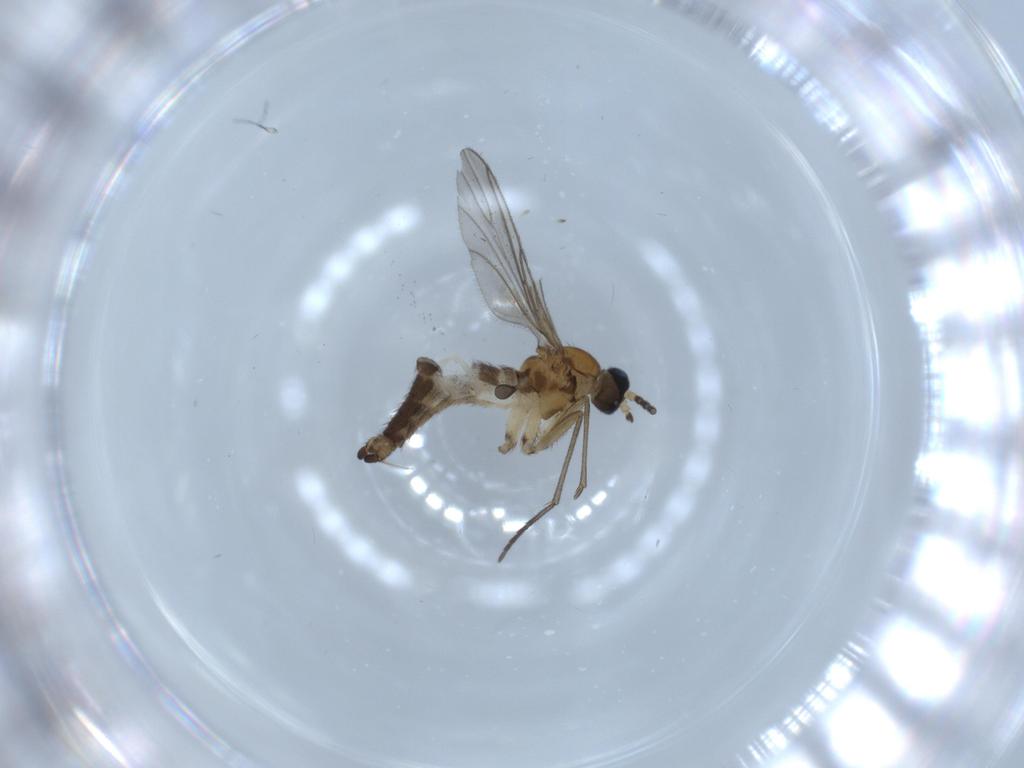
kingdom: Animalia
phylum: Arthropoda
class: Insecta
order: Diptera
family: Sciaridae
